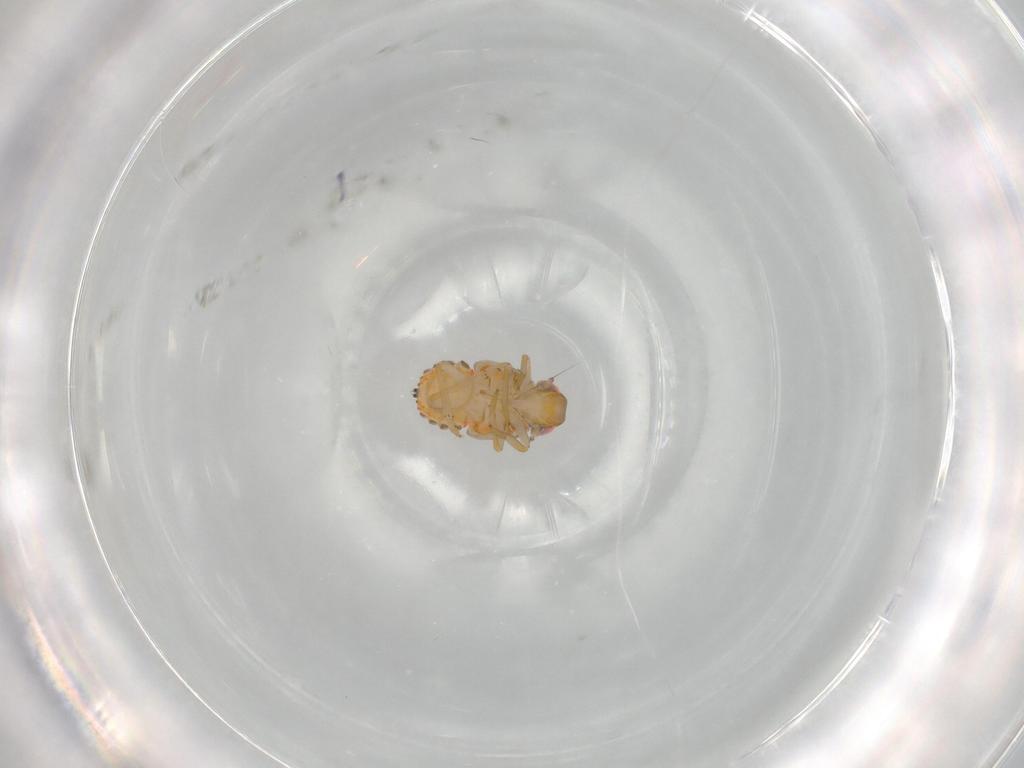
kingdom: Animalia
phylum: Arthropoda
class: Insecta
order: Hemiptera
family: Issidae
